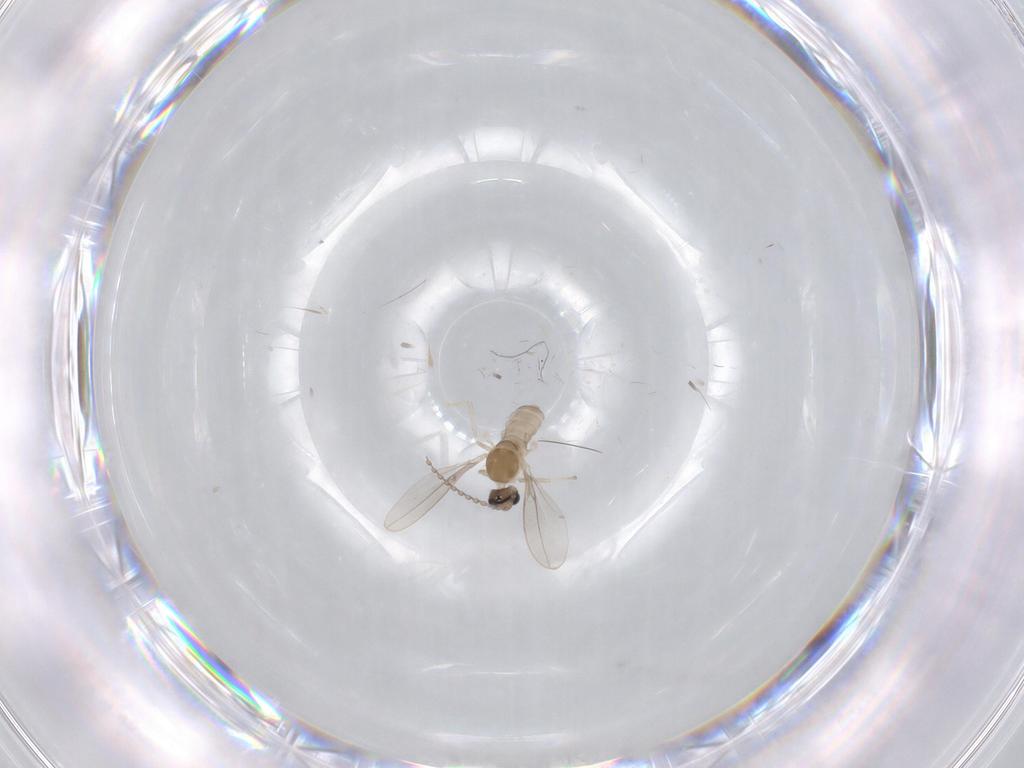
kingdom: Animalia
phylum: Arthropoda
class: Insecta
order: Diptera
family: Cecidomyiidae
